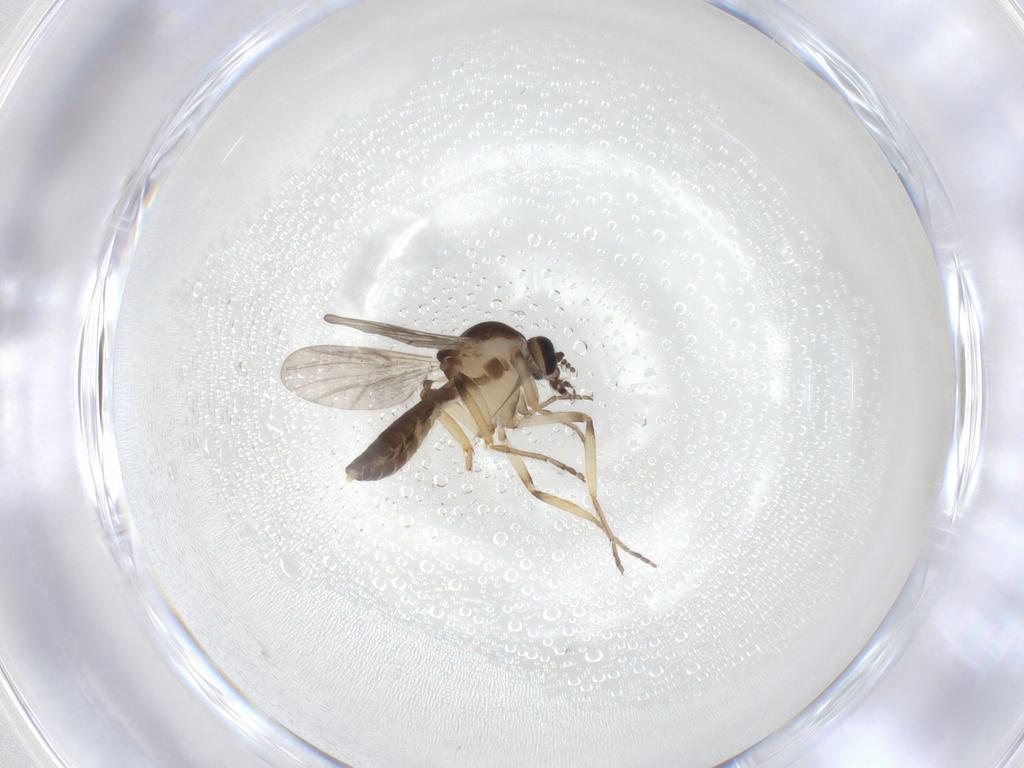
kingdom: Animalia
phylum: Arthropoda
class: Insecta
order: Diptera
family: Sciaridae
